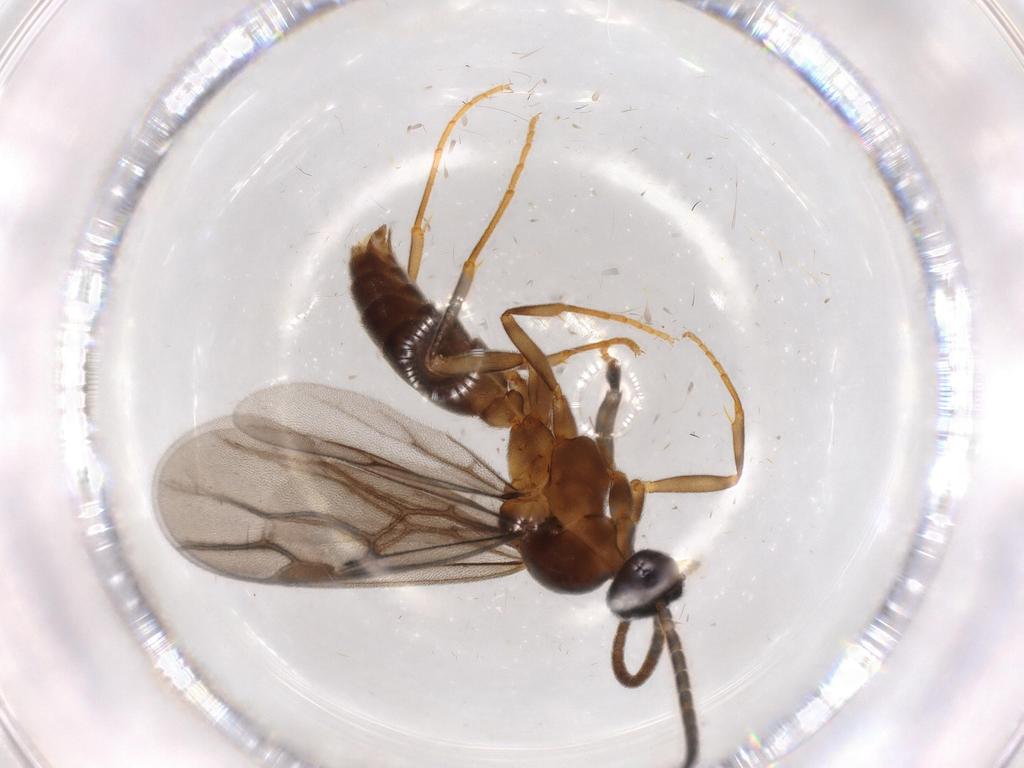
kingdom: Animalia
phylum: Arthropoda
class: Insecta
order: Hymenoptera
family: Formicidae
